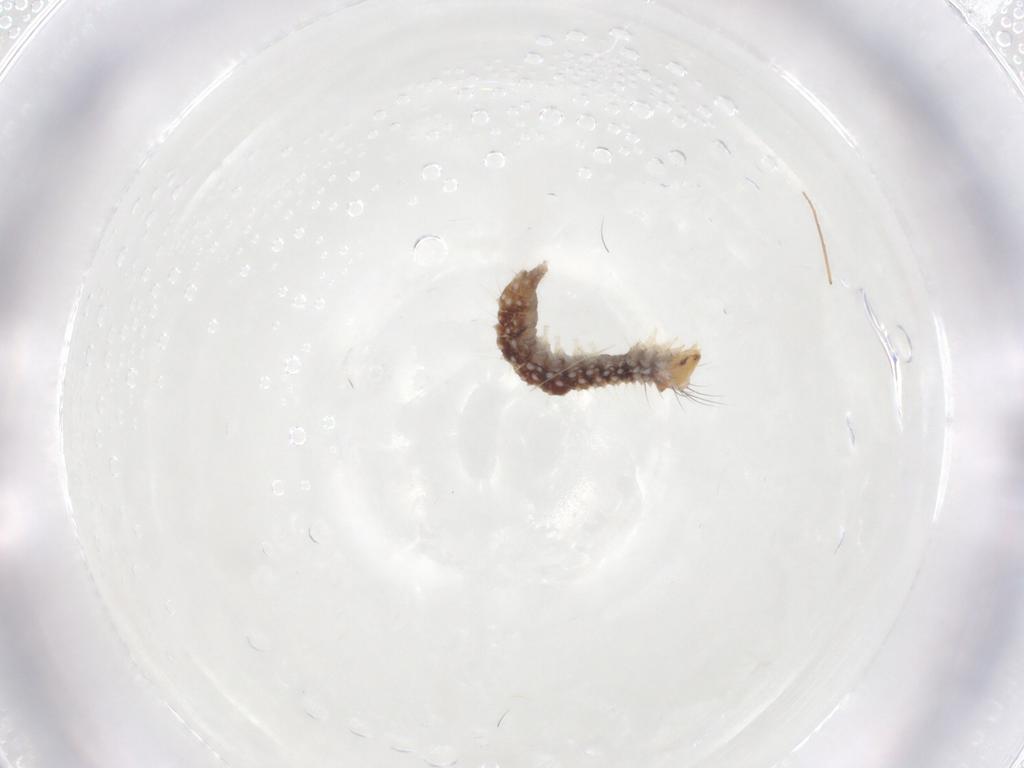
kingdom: Animalia
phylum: Arthropoda
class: Insecta
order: Lepidoptera
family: Bucculatricidae
